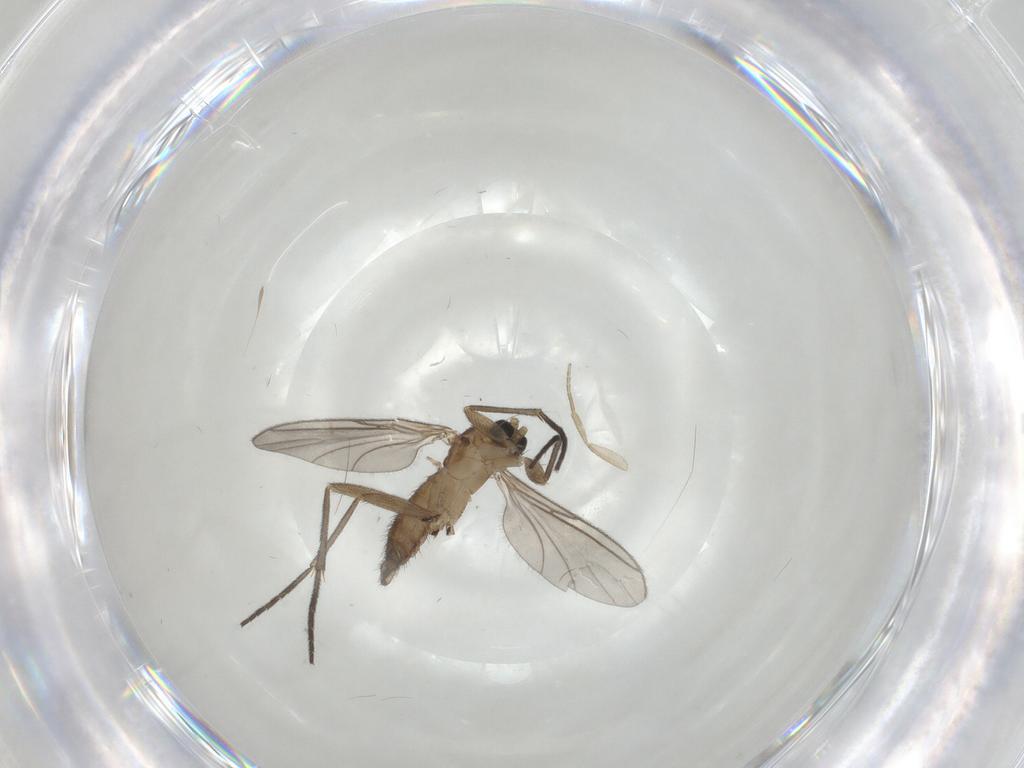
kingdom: Animalia
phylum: Arthropoda
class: Insecta
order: Diptera
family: Sciaridae
